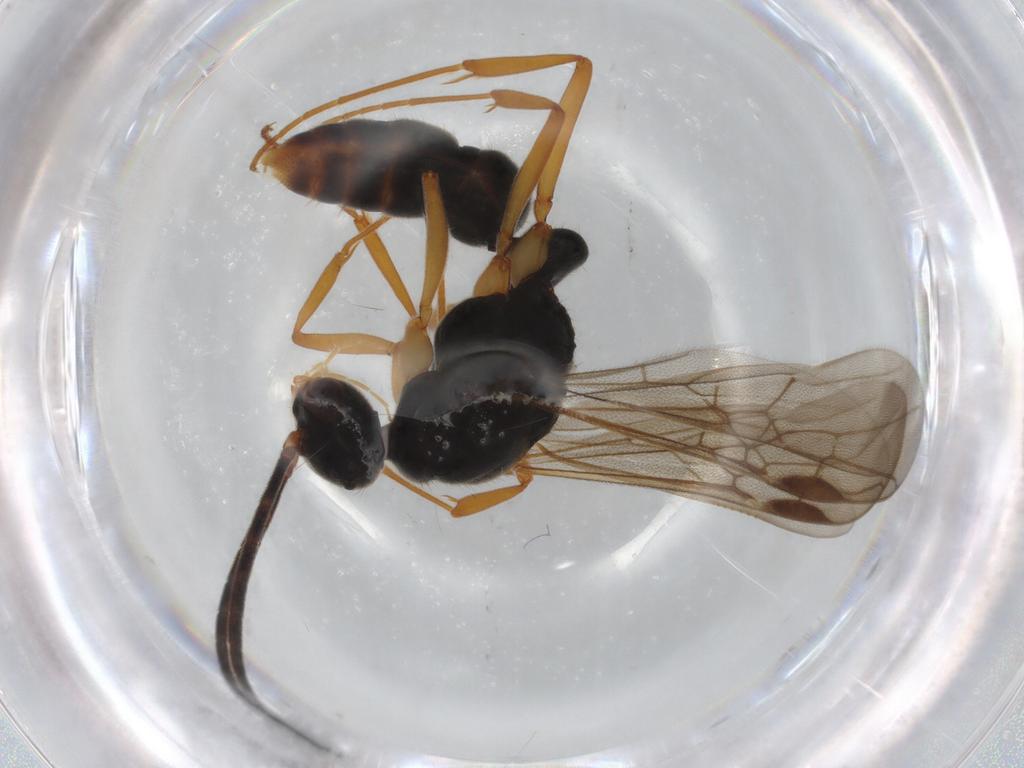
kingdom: Animalia
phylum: Arthropoda
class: Insecta
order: Hymenoptera
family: Formicidae
